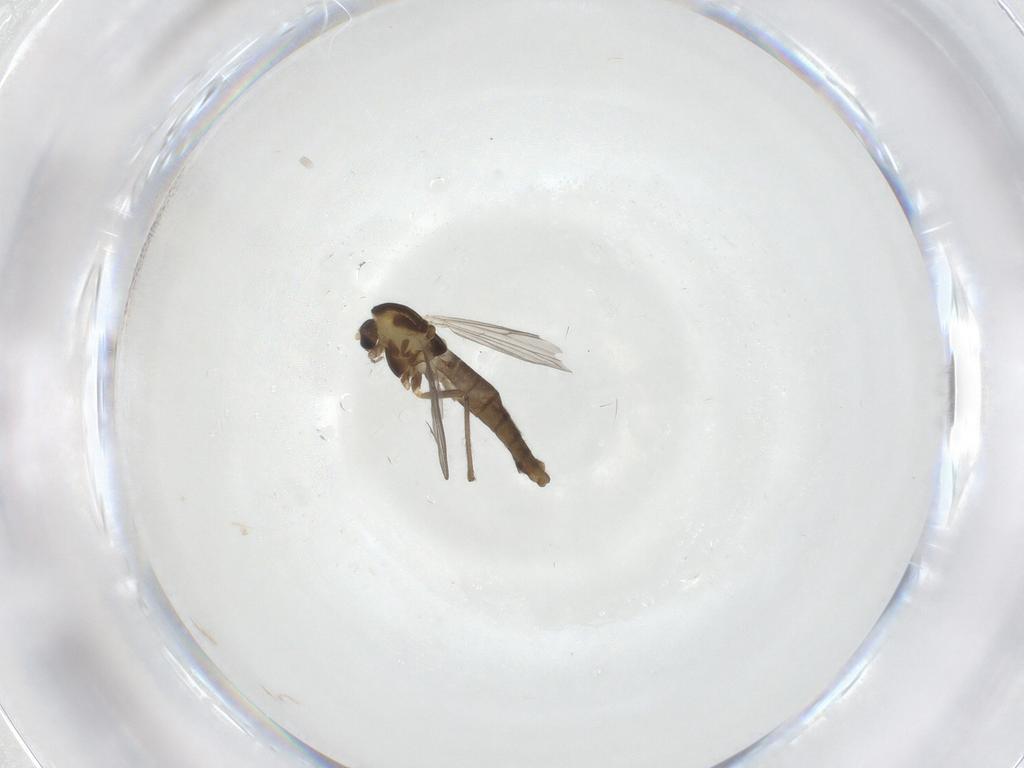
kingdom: Animalia
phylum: Arthropoda
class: Insecta
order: Diptera
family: Chironomidae
